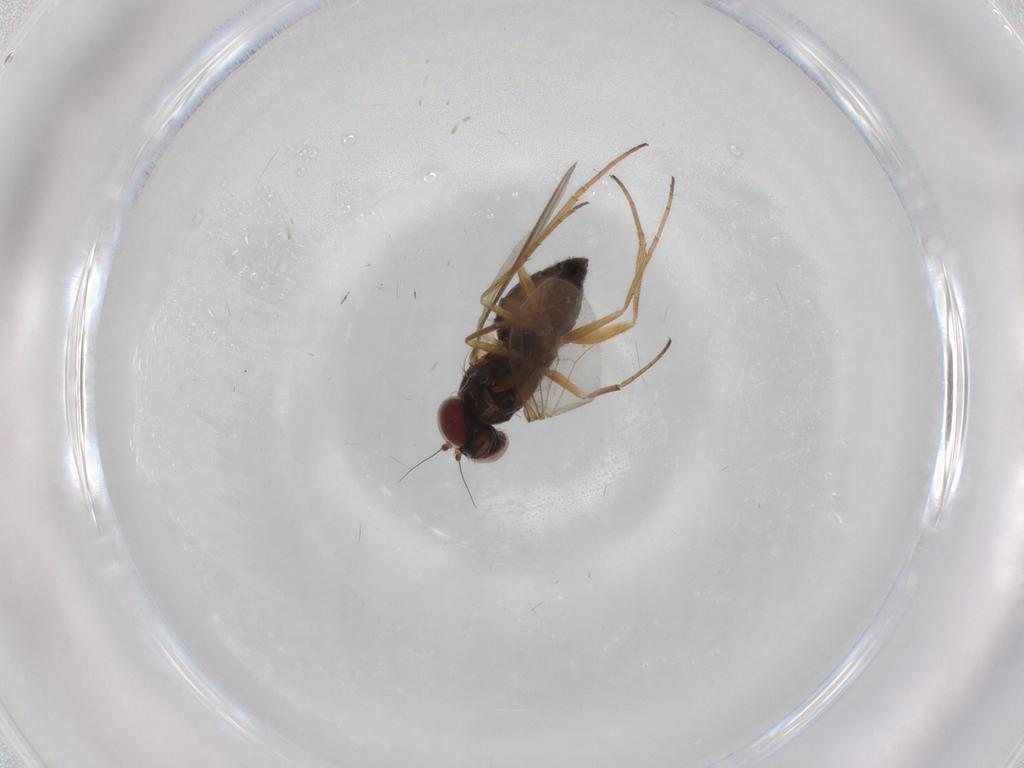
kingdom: Animalia
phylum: Arthropoda
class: Insecta
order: Diptera
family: Dolichopodidae
